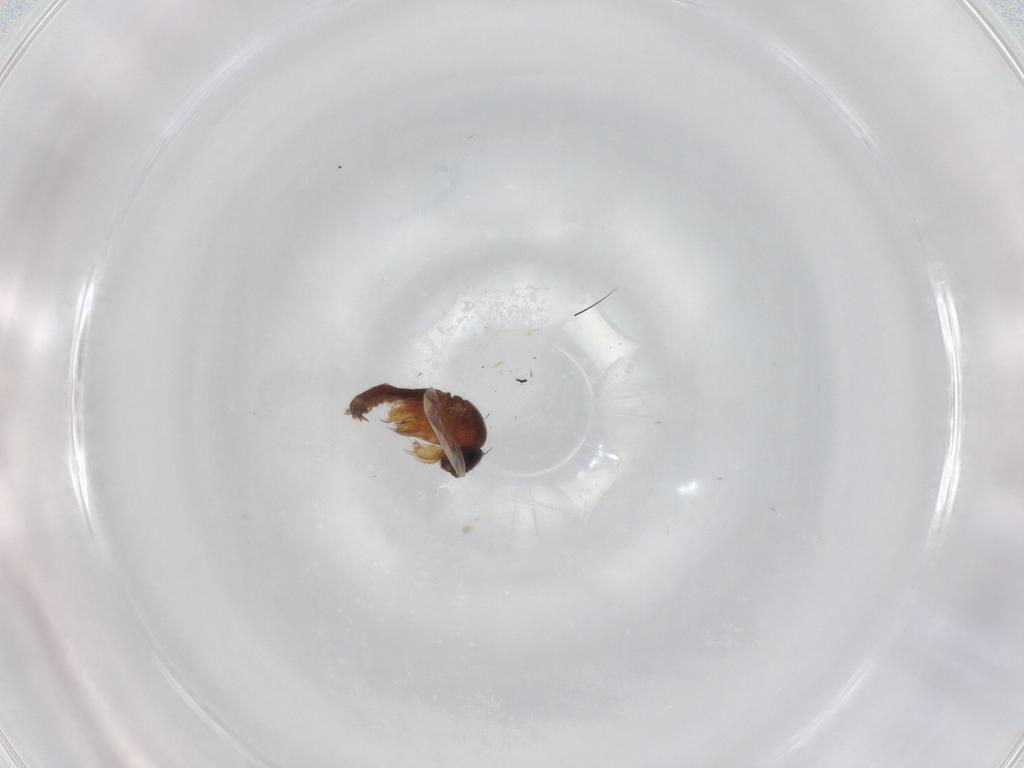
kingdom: Animalia
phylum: Arthropoda
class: Insecta
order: Diptera
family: Phoridae
